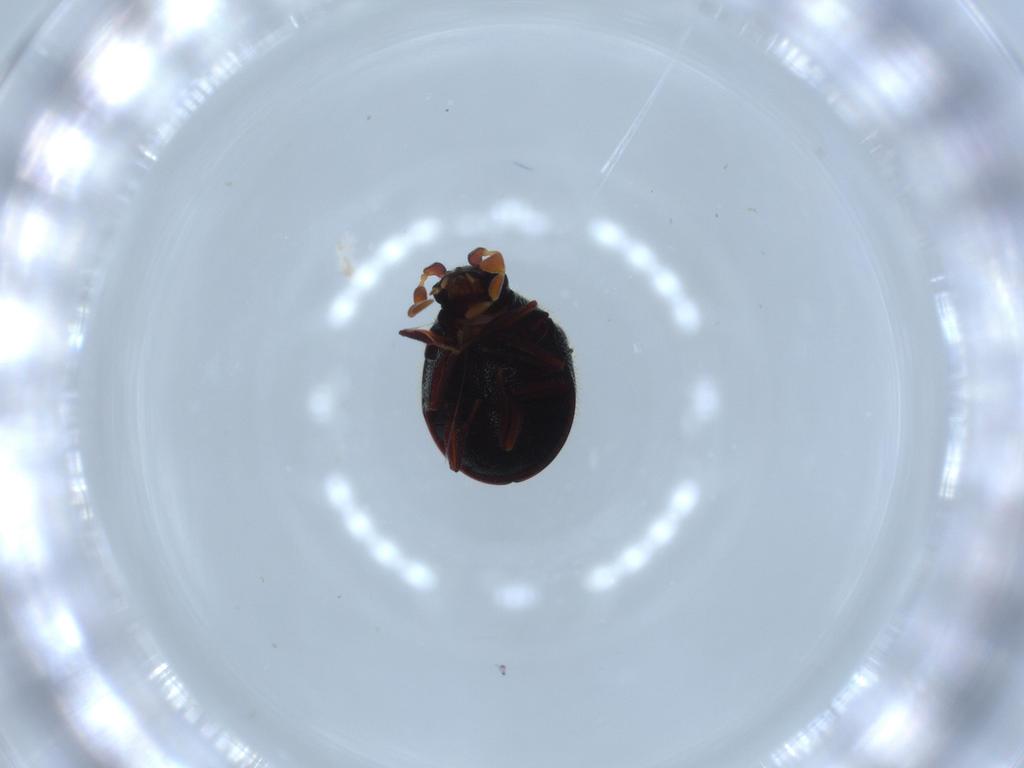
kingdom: Animalia
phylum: Arthropoda
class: Insecta
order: Coleoptera
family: Ptinidae
